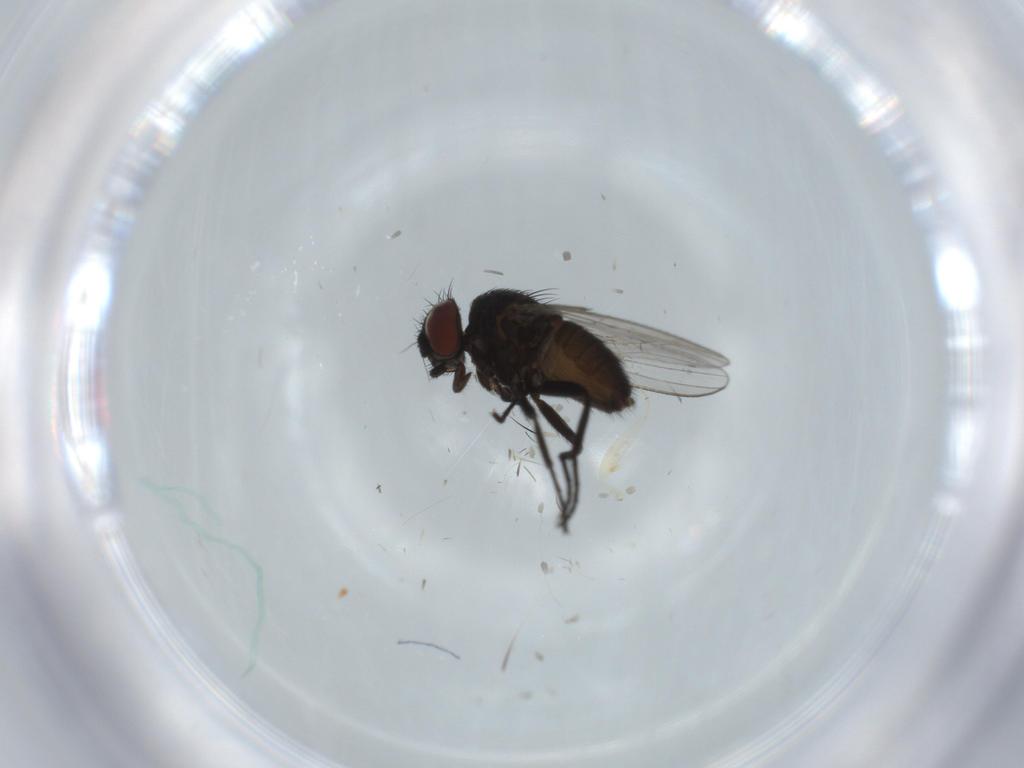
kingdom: Animalia
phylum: Arthropoda
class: Insecta
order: Diptera
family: Milichiidae
